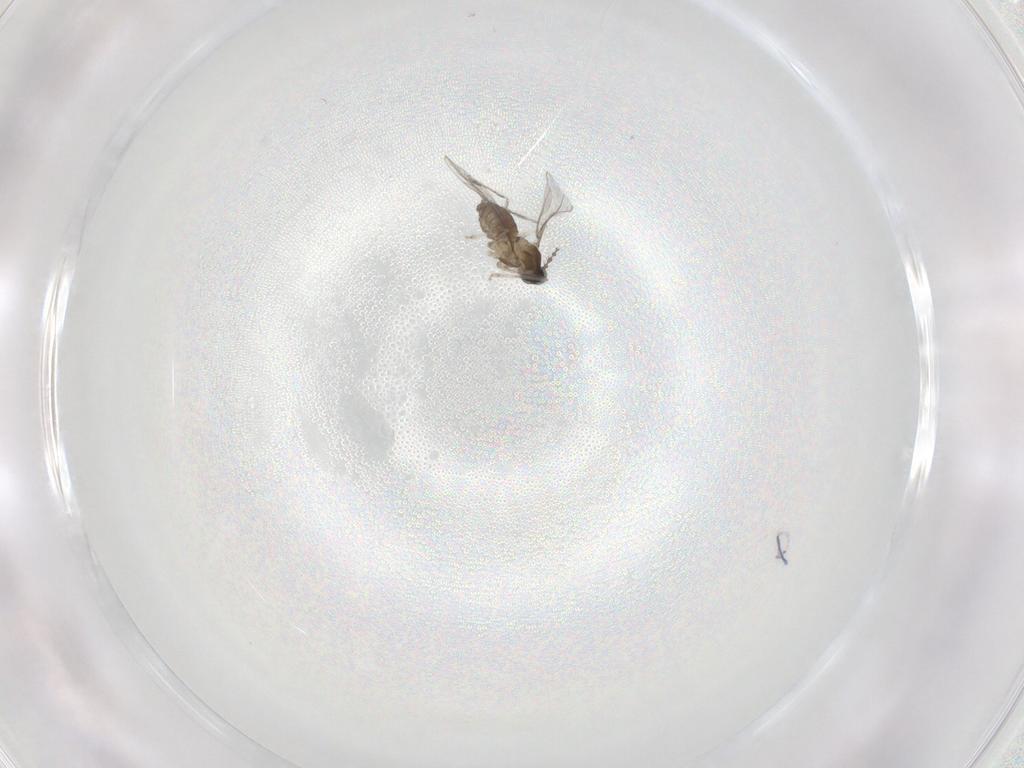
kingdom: Animalia
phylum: Arthropoda
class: Insecta
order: Diptera
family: Cecidomyiidae
